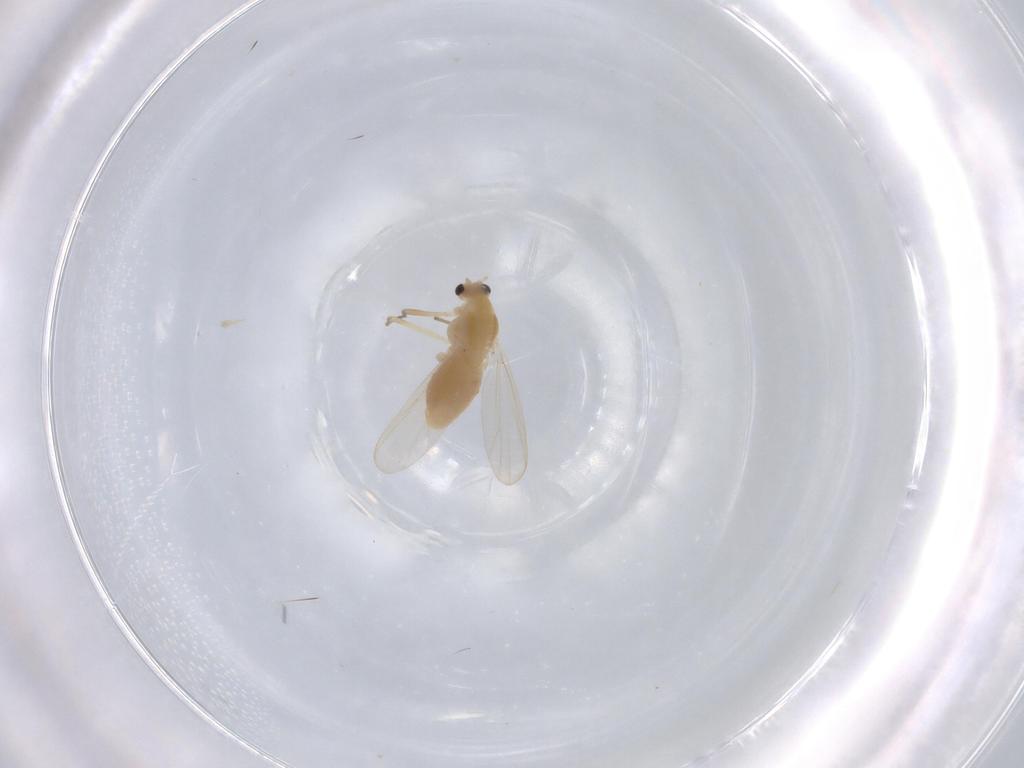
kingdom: Animalia
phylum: Arthropoda
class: Insecta
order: Diptera
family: Chironomidae
